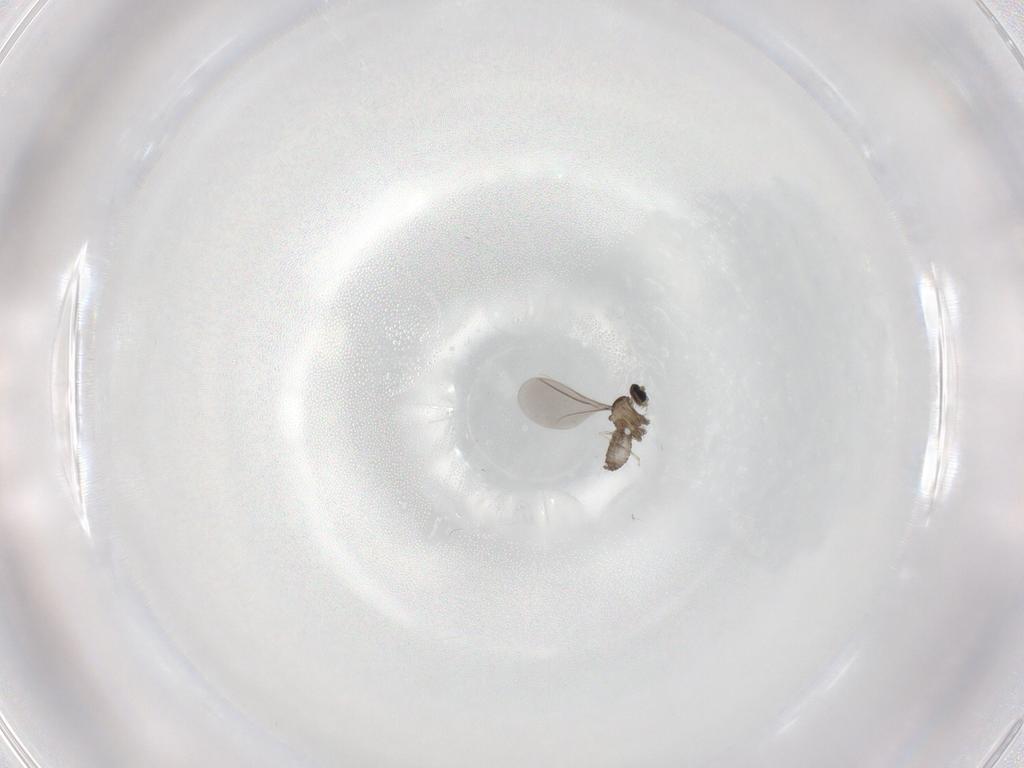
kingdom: Animalia
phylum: Arthropoda
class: Insecta
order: Diptera
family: Cecidomyiidae
